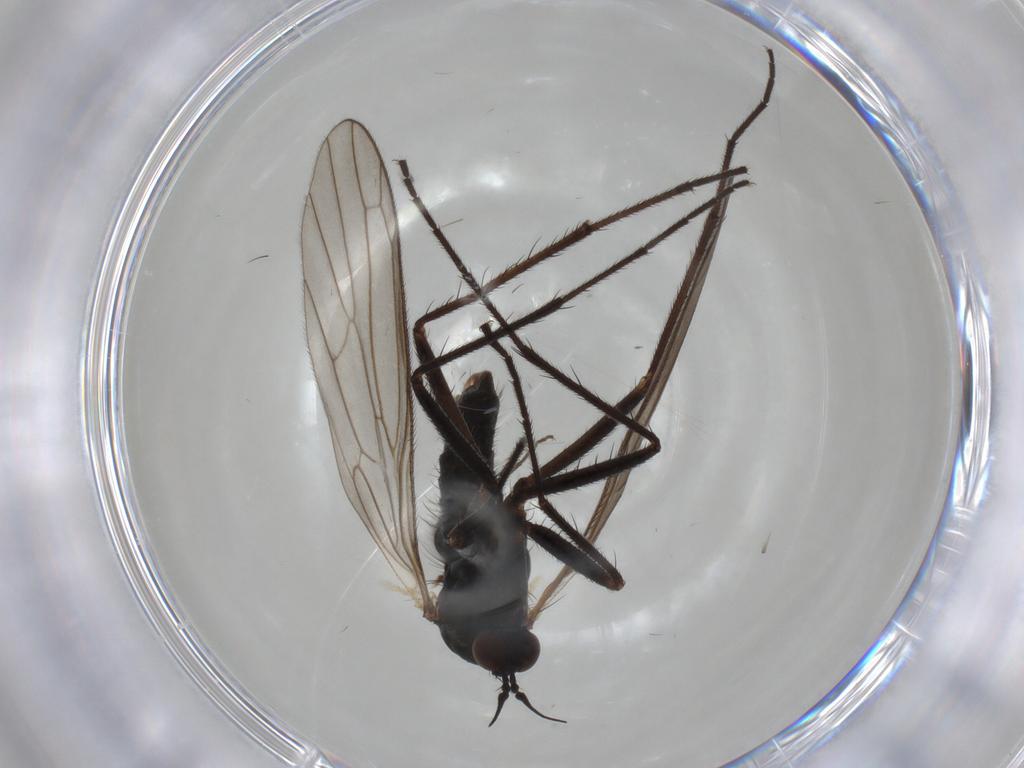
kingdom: Animalia
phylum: Arthropoda
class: Insecta
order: Diptera
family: Empididae
